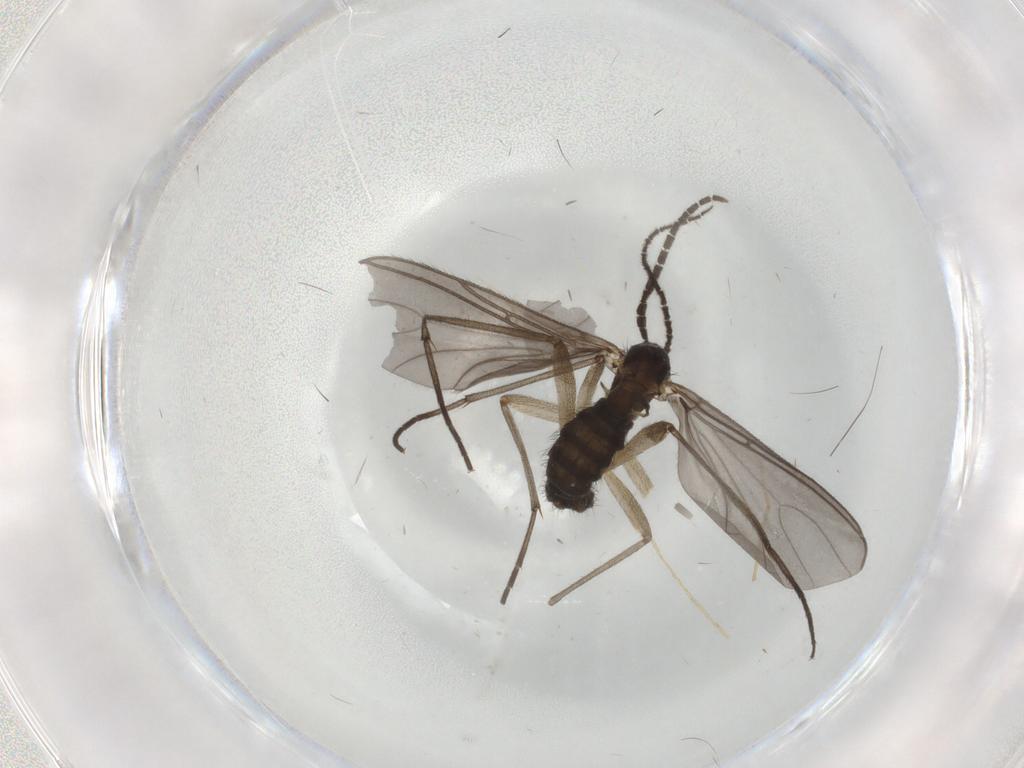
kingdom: Animalia
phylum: Arthropoda
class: Insecta
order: Diptera
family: Sciaridae
